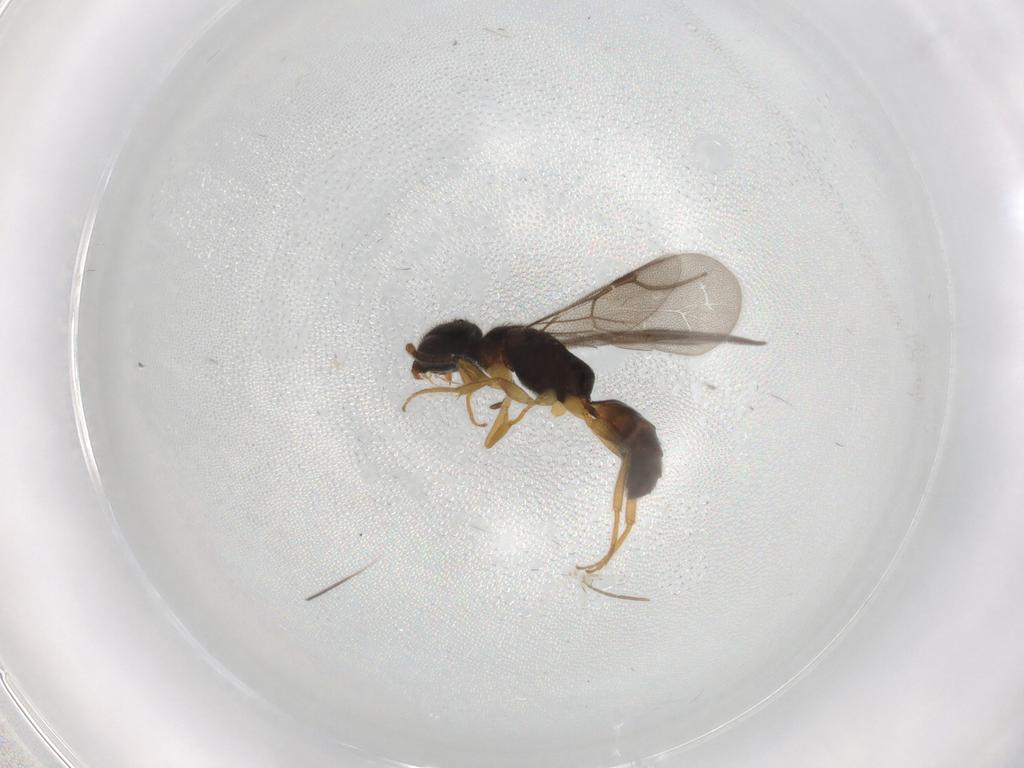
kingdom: Animalia
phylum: Arthropoda
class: Insecta
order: Hymenoptera
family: Bethylidae
